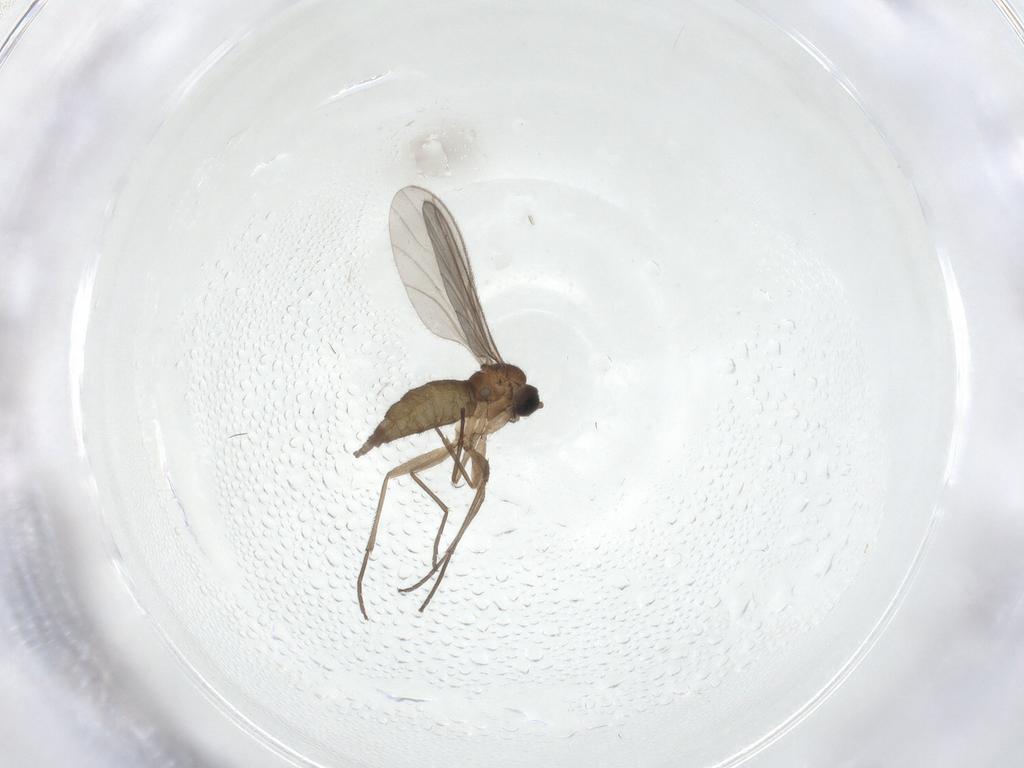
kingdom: Animalia
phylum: Arthropoda
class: Insecta
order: Diptera
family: Sciaridae
